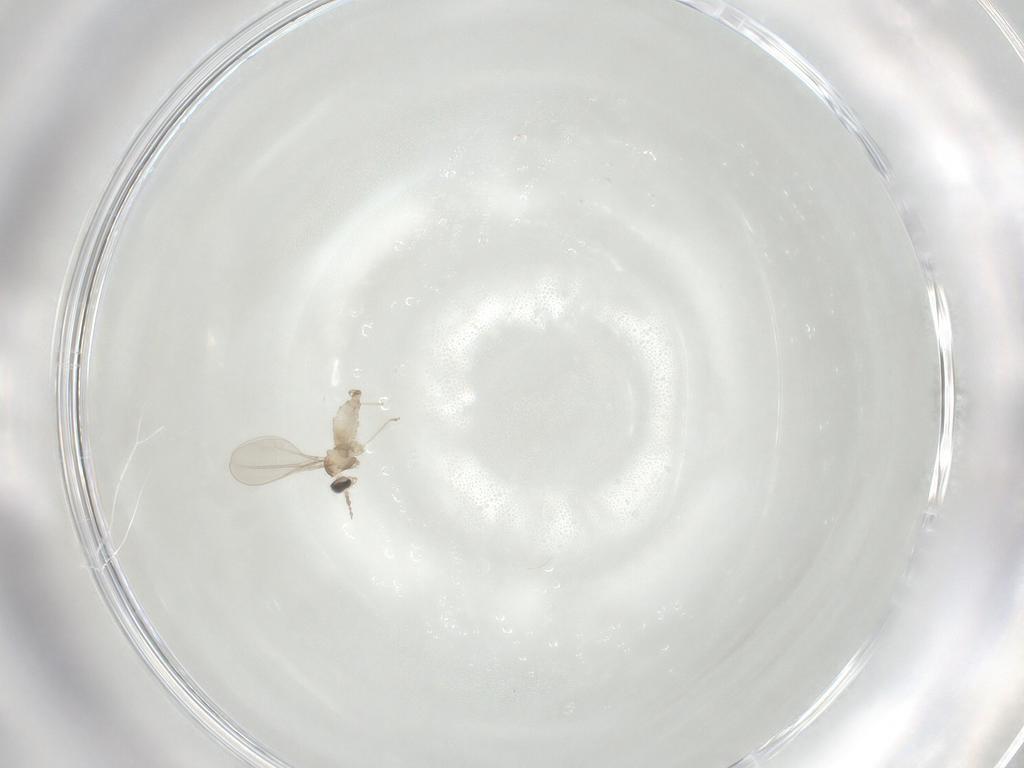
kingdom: Animalia
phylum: Arthropoda
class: Insecta
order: Diptera
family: Cecidomyiidae
